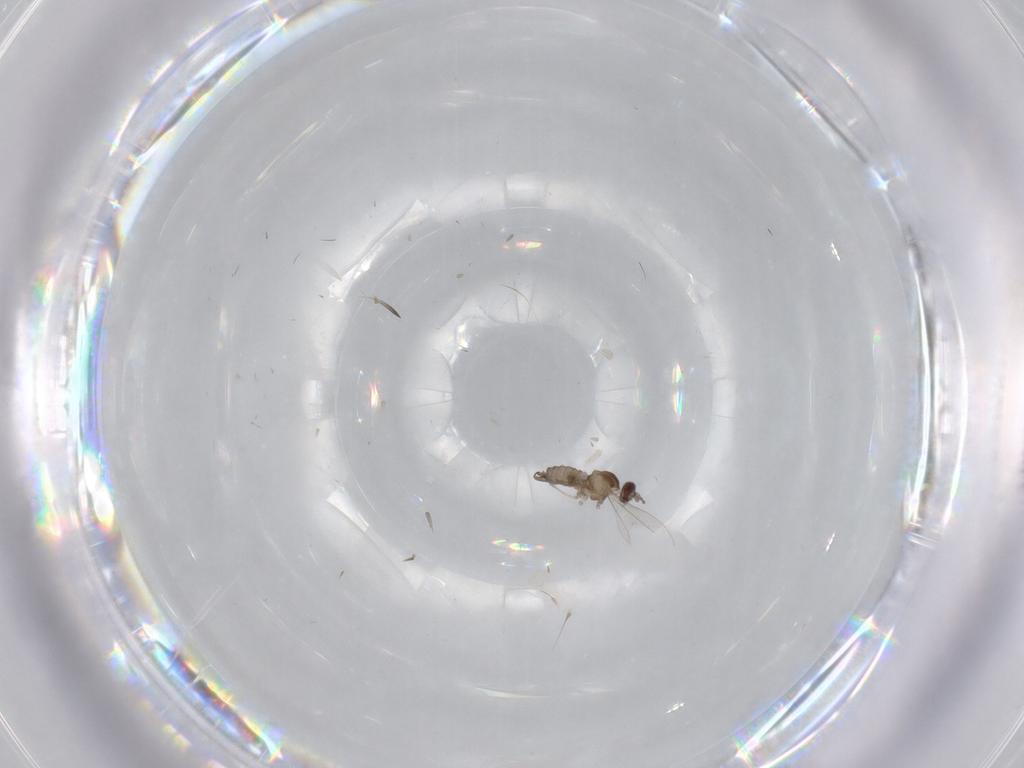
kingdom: Animalia
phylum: Arthropoda
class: Insecta
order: Diptera
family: Cecidomyiidae
